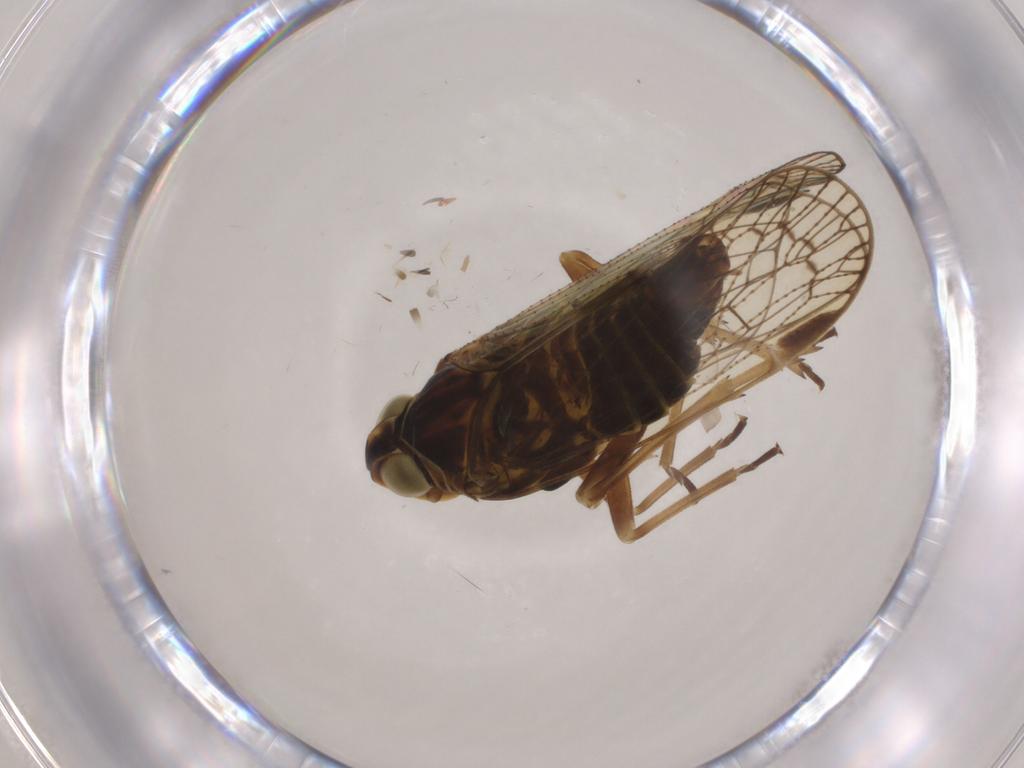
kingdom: Animalia
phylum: Arthropoda
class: Insecta
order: Hemiptera
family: Cixiidae
